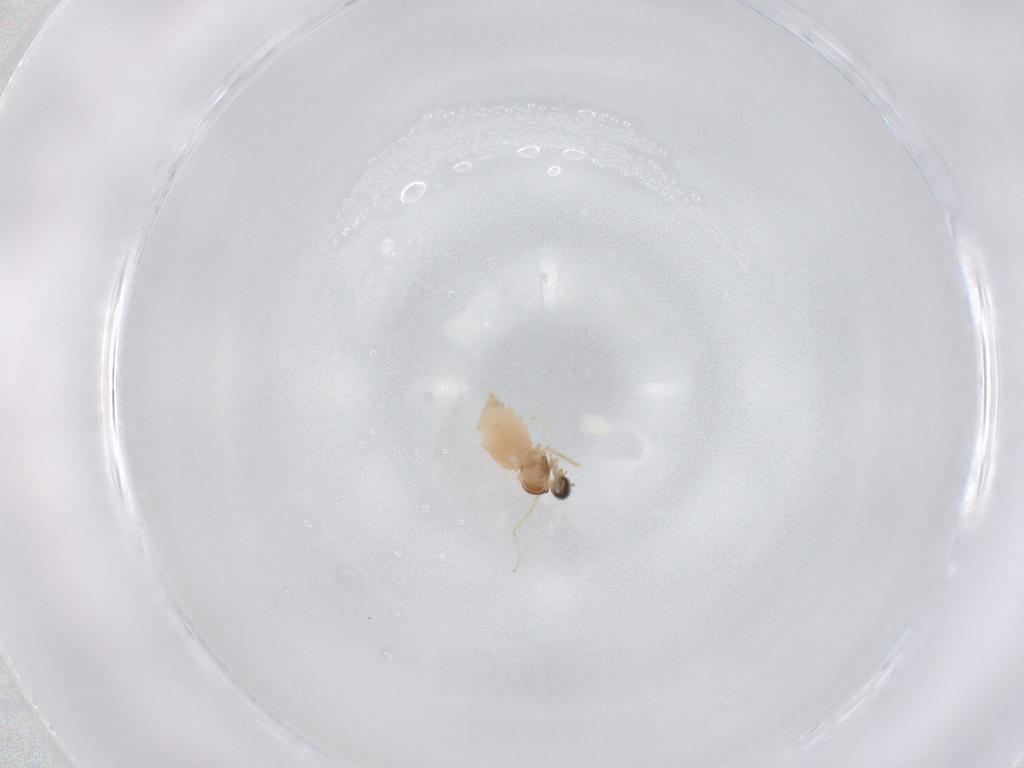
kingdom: Animalia
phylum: Arthropoda
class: Insecta
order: Diptera
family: Cecidomyiidae
